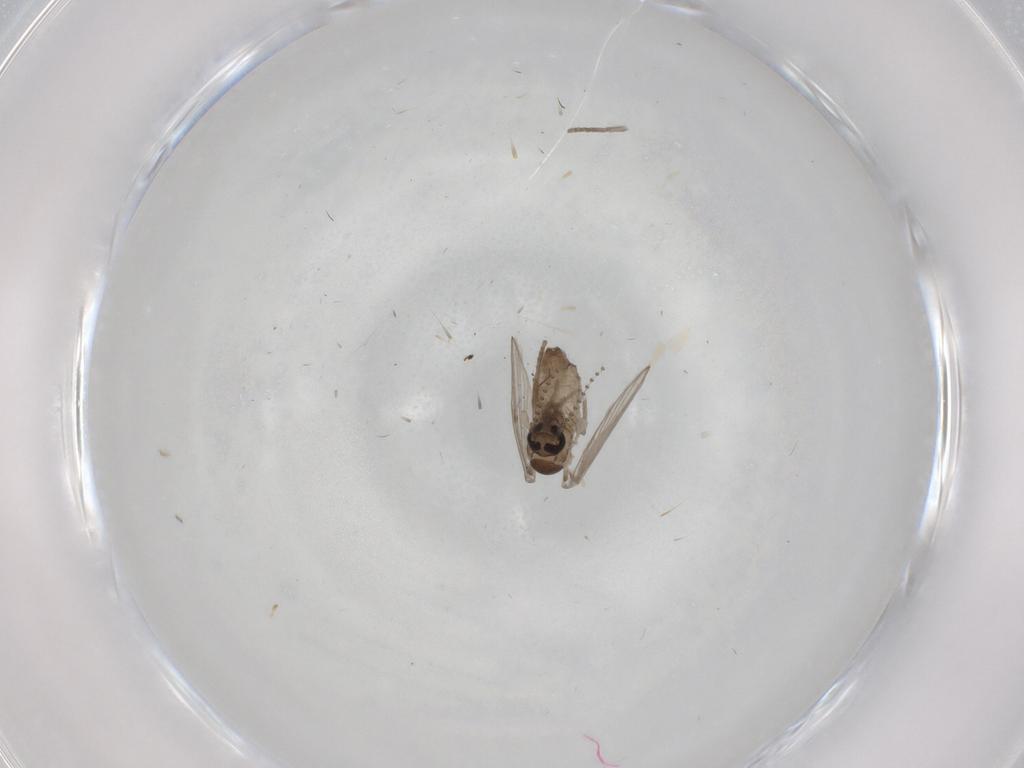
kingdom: Animalia
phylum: Arthropoda
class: Insecta
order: Diptera
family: Psychodidae
